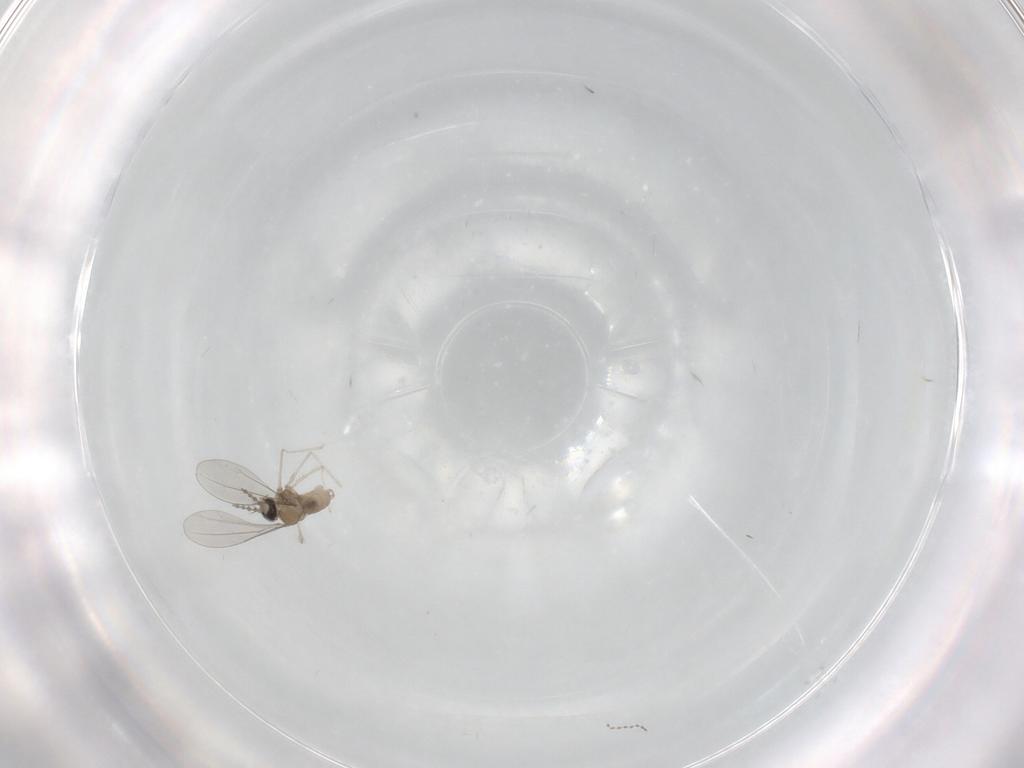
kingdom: Animalia
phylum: Arthropoda
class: Insecta
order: Diptera
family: Cecidomyiidae
